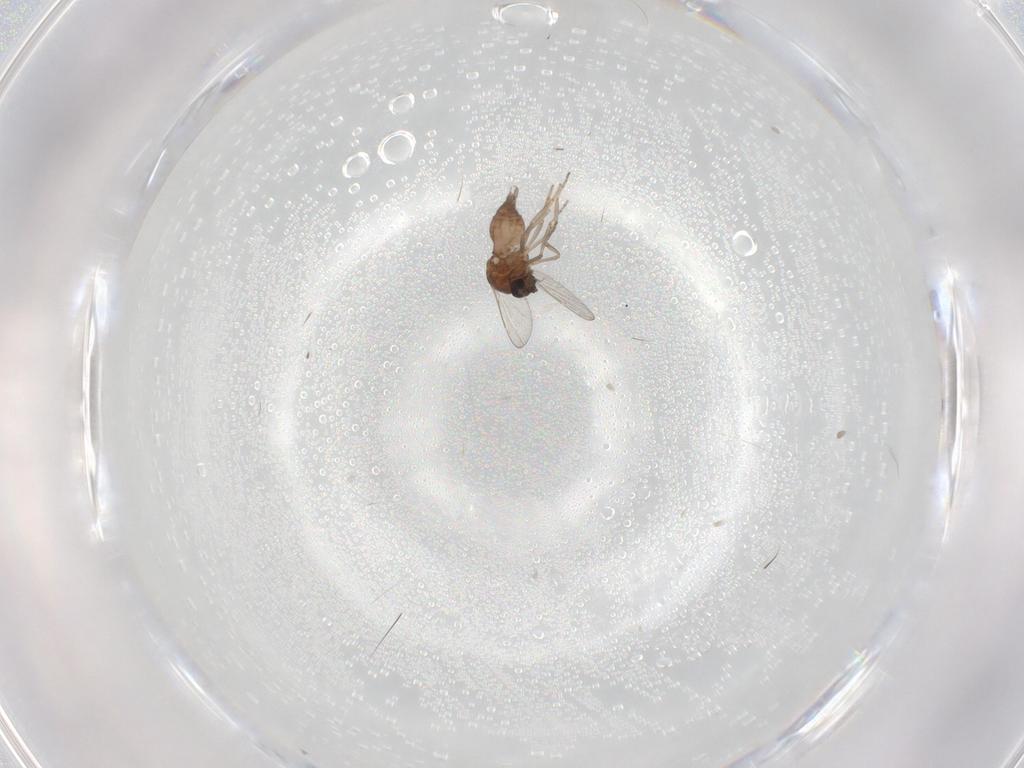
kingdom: Animalia
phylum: Arthropoda
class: Insecta
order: Diptera
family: Ceratopogonidae
